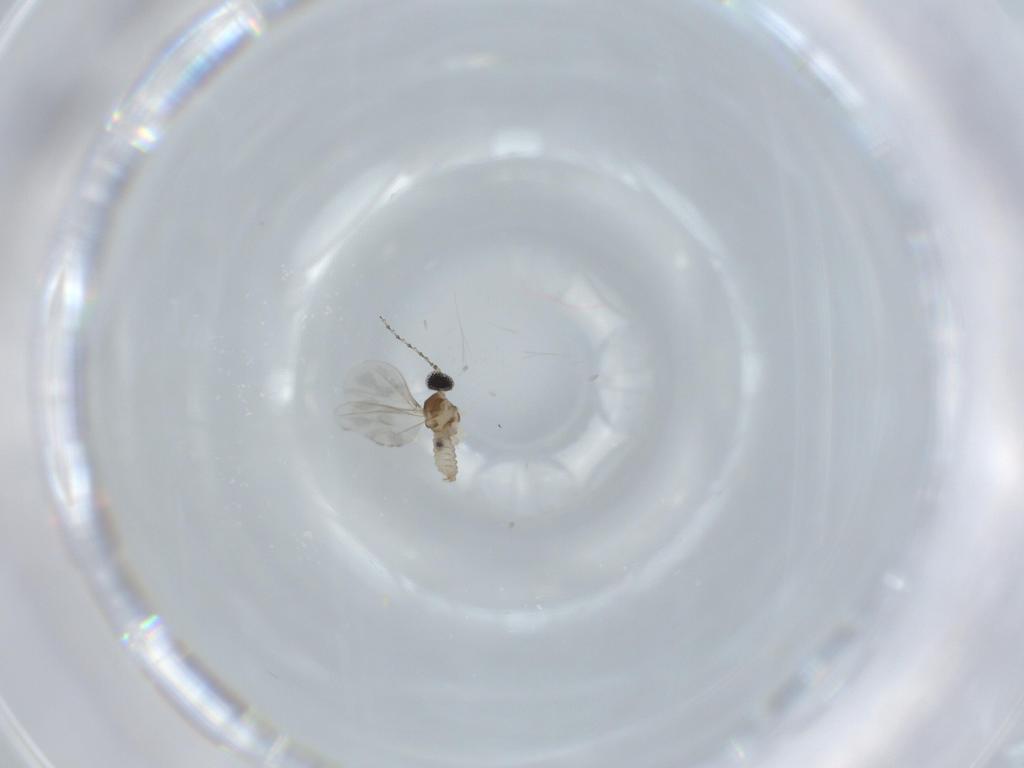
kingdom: Animalia
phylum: Arthropoda
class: Insecta
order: Diptera
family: Cecidomyiidae
